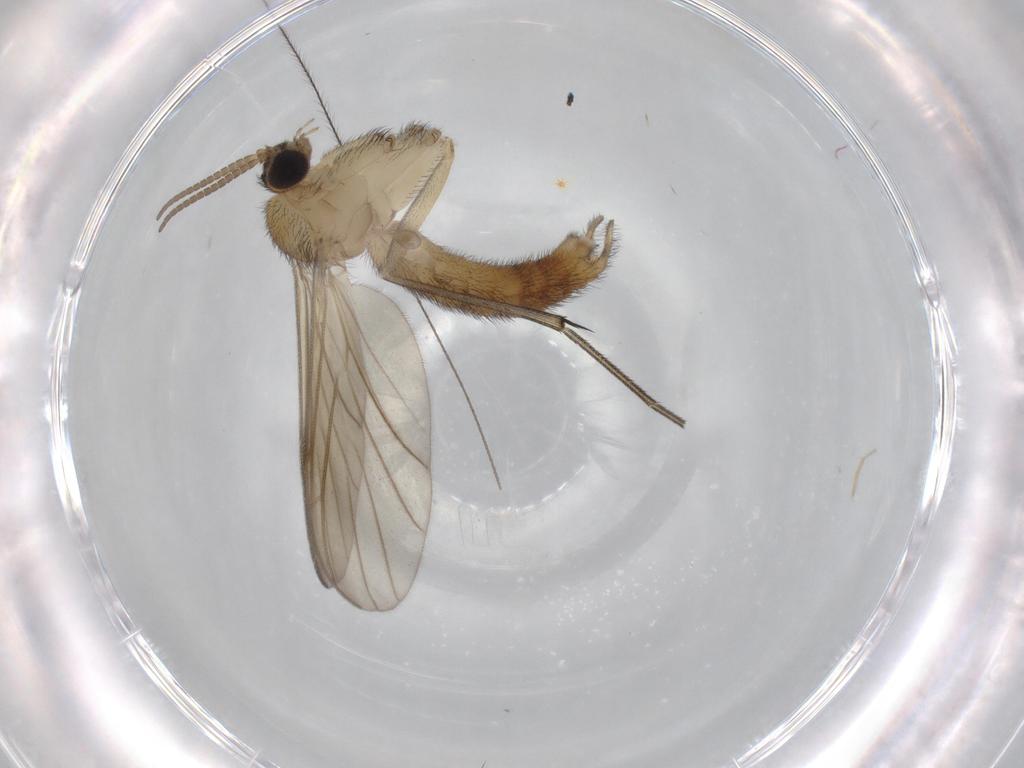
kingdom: Animalia
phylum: Arthropoda
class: Insecta
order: Diptera
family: Keroplatidae
